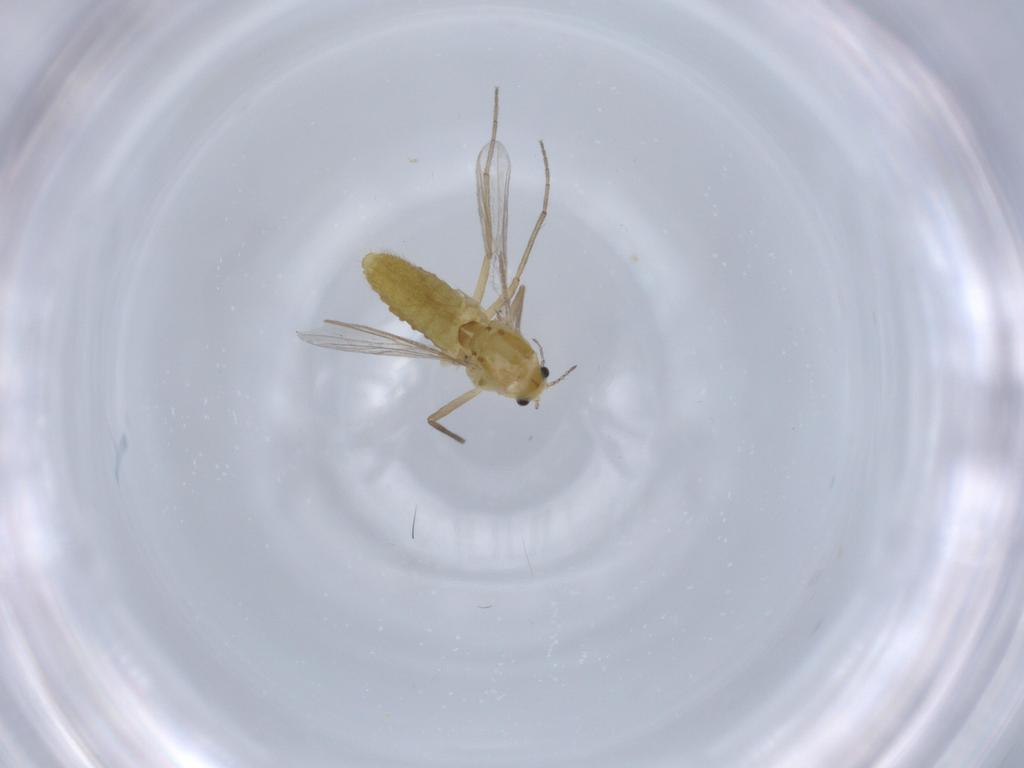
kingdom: Animalia
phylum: Arthropoda
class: Insecta
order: Diptera
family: Chironomidae
